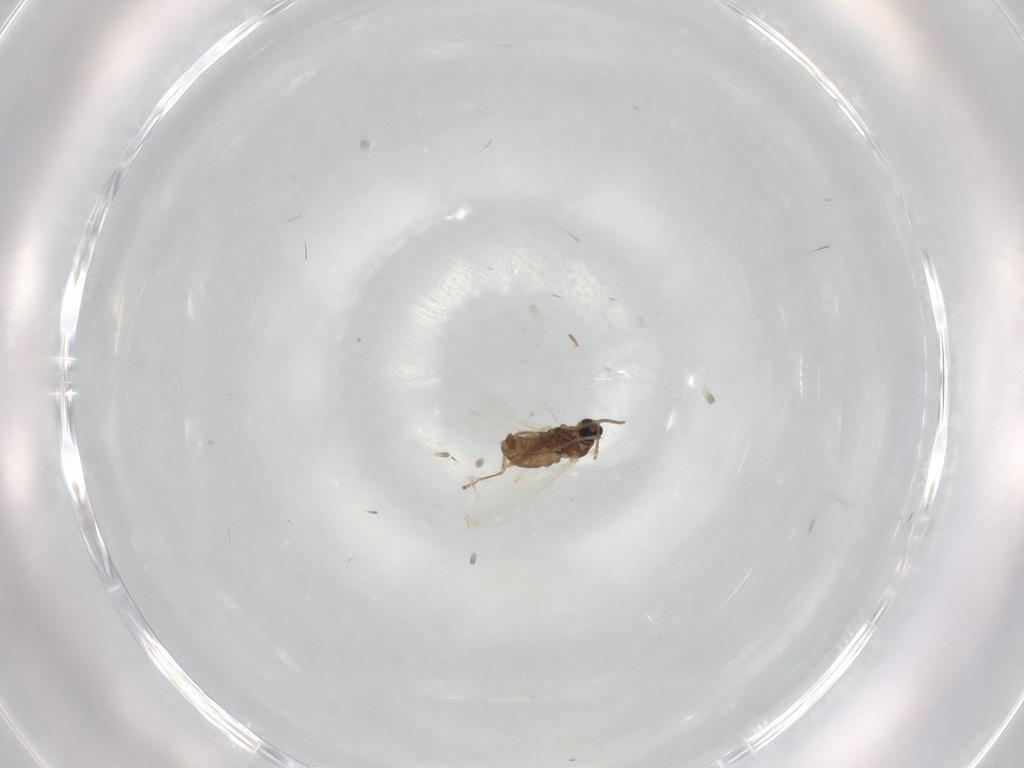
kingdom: Animalia
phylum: Arthropoda
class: Insecta
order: Diptera
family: Cecidomyiidae
